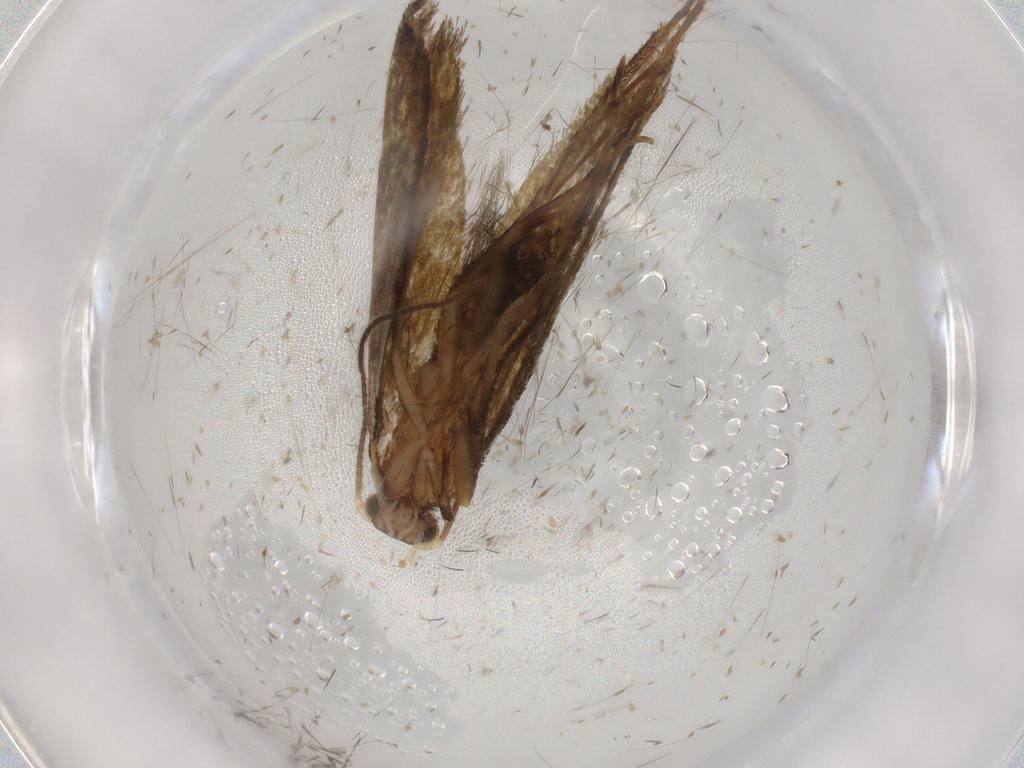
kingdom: Animalia
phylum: Arthropoda
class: Insecta
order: Lepidoptera
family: Tineidae
